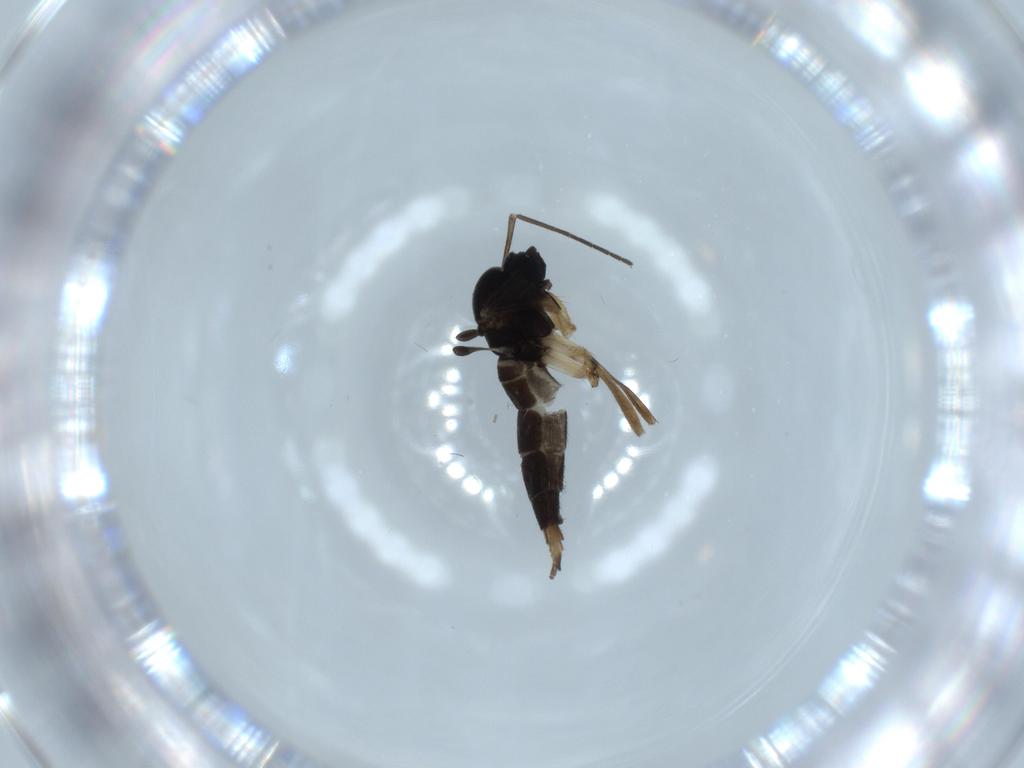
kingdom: Animalia
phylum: Arthropoda
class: Insecta
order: Diptera
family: Sciaridae
